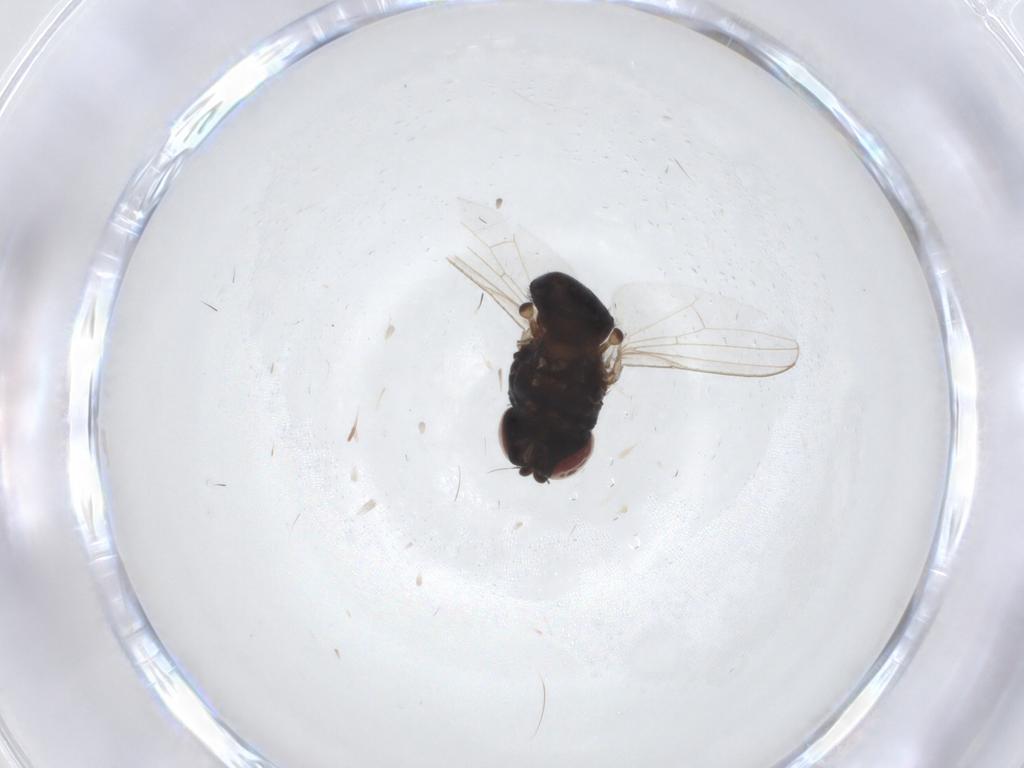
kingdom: Animalia
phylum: Arthropoda
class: Insecta
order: Diptera
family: Milichiidae
